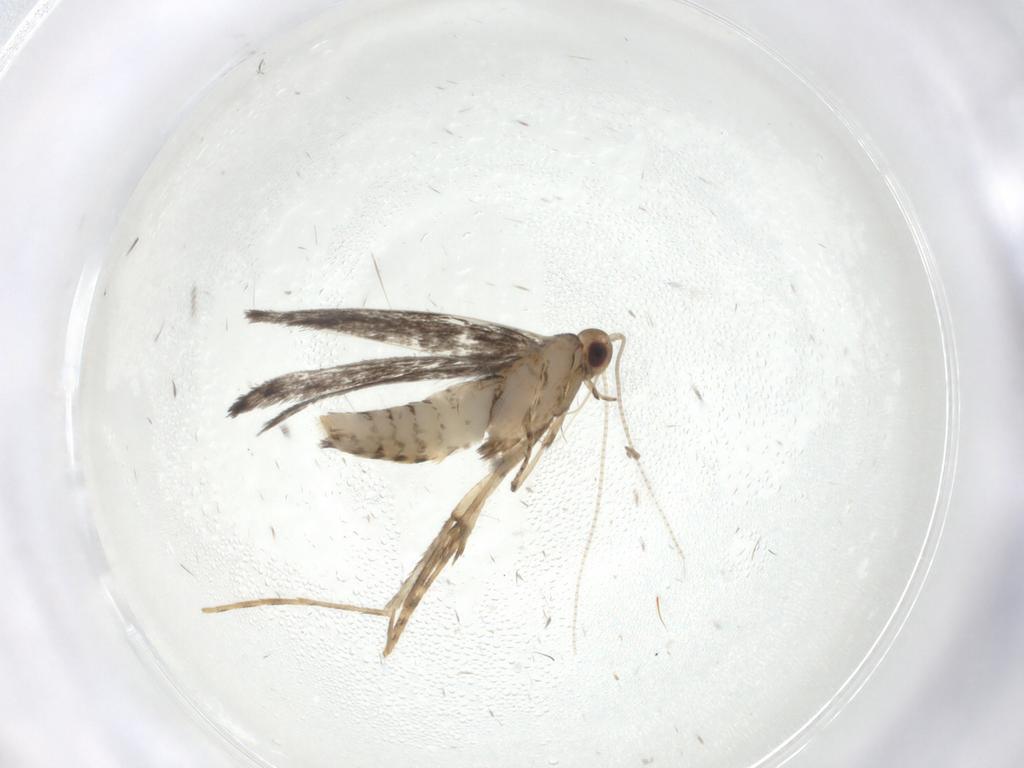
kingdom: Animalia
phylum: Arthropoda
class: Insecta
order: Lepidoptera
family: Gracillariidae
